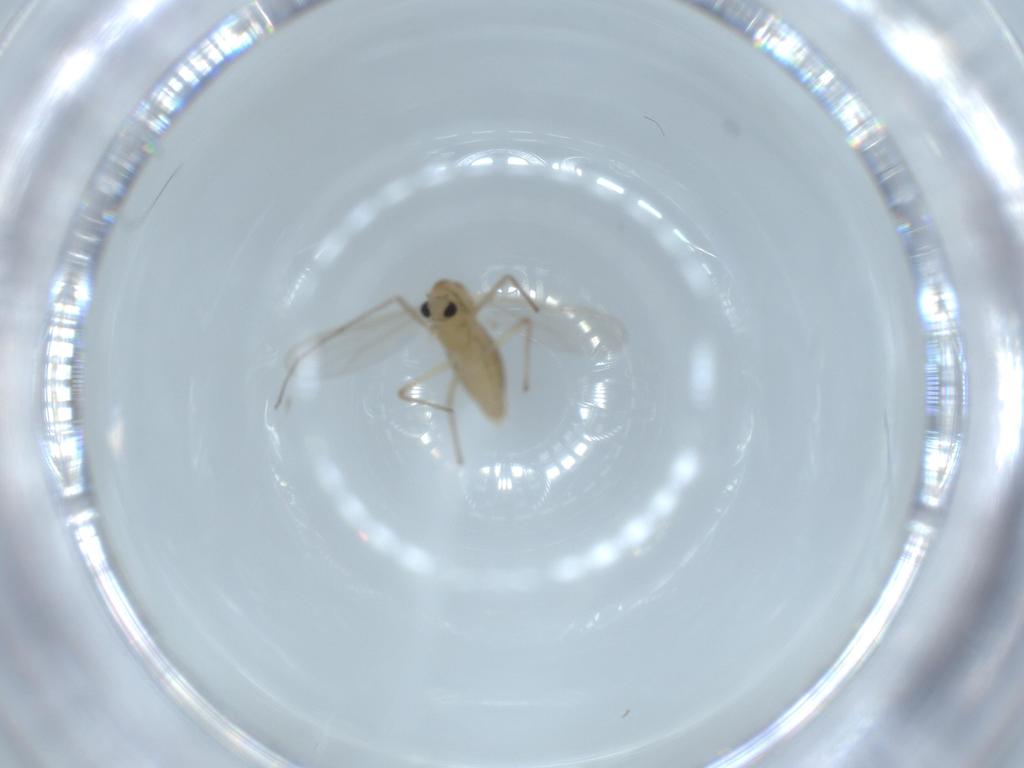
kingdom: Animalia
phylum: Arthropoda
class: Insecta
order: Diptera
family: Chironomidae
